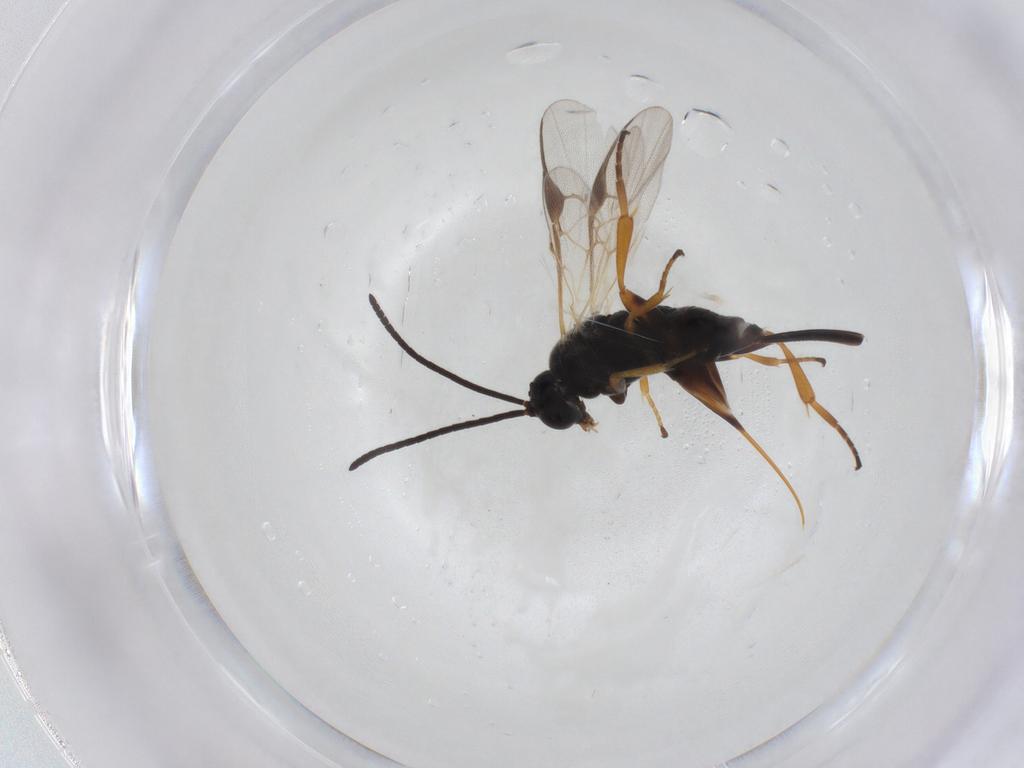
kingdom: Animalia
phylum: Arthropoda
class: Insecta
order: Hymenoptera
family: Braconidae
